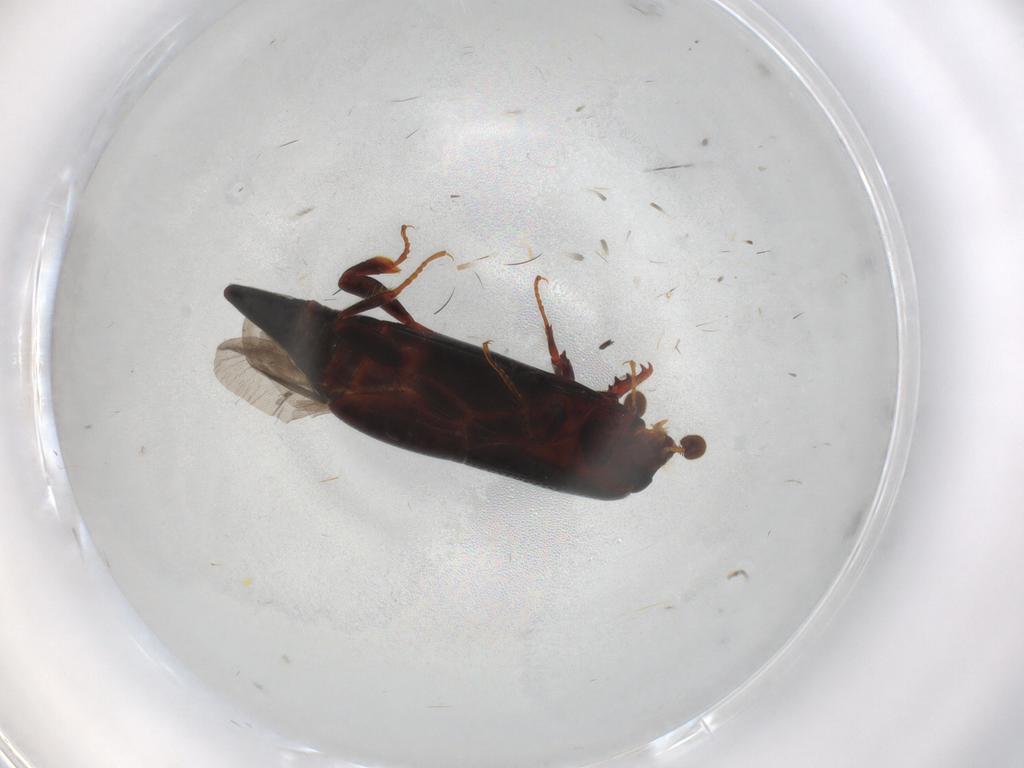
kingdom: Animalia
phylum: Arthropoda
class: Insecta
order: Coleoptera
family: Histeridae
